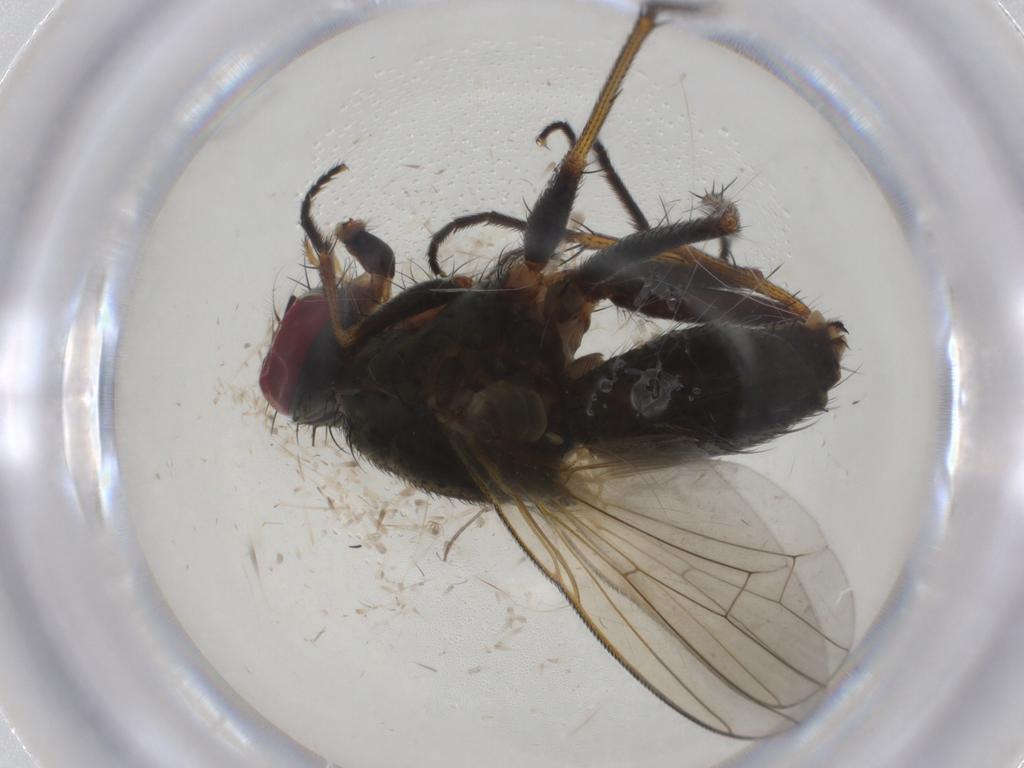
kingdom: Animalia
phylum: Arthropoda
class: Insecta
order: Diptera
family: Muscidae
